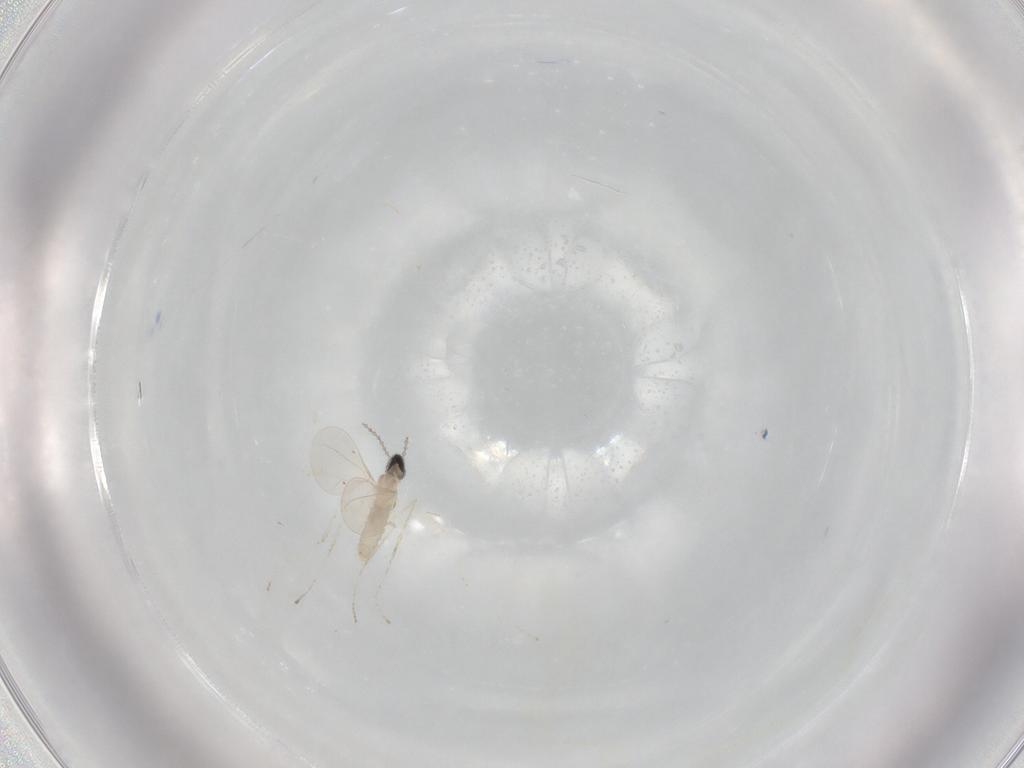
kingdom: Animalia
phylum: Arthropoda
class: Insecta
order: Diptera
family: Cecidomyiidae
